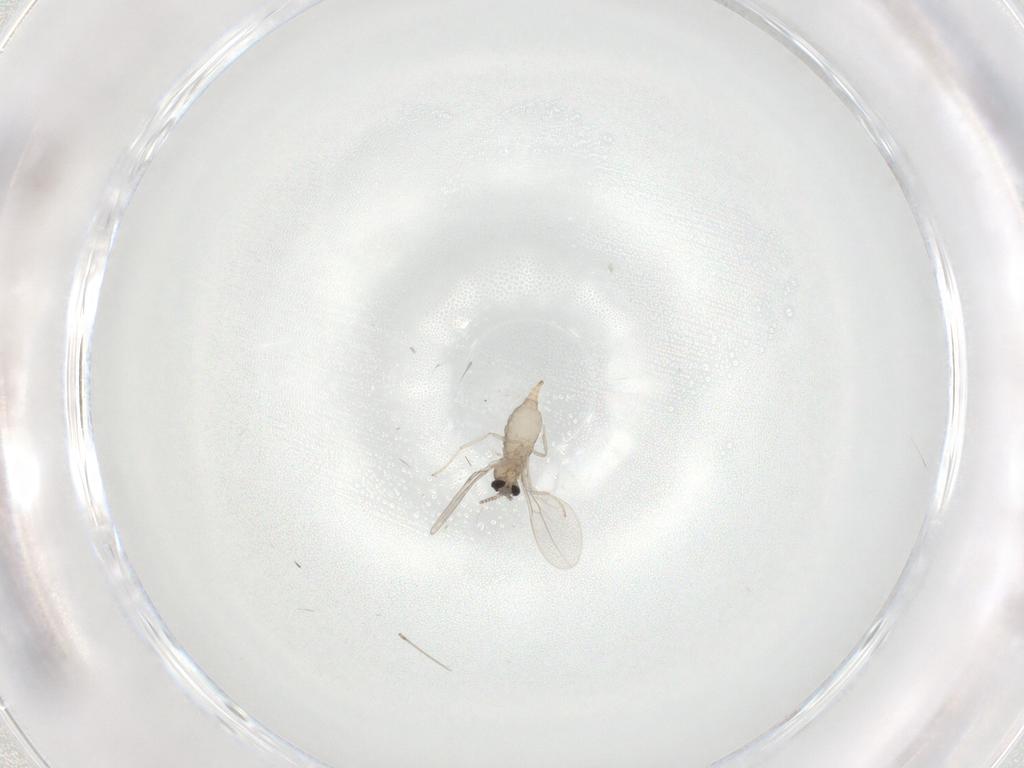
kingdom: Animalia
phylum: Arthropoda
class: Insecta
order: Diptera
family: Cecidomyiidae
